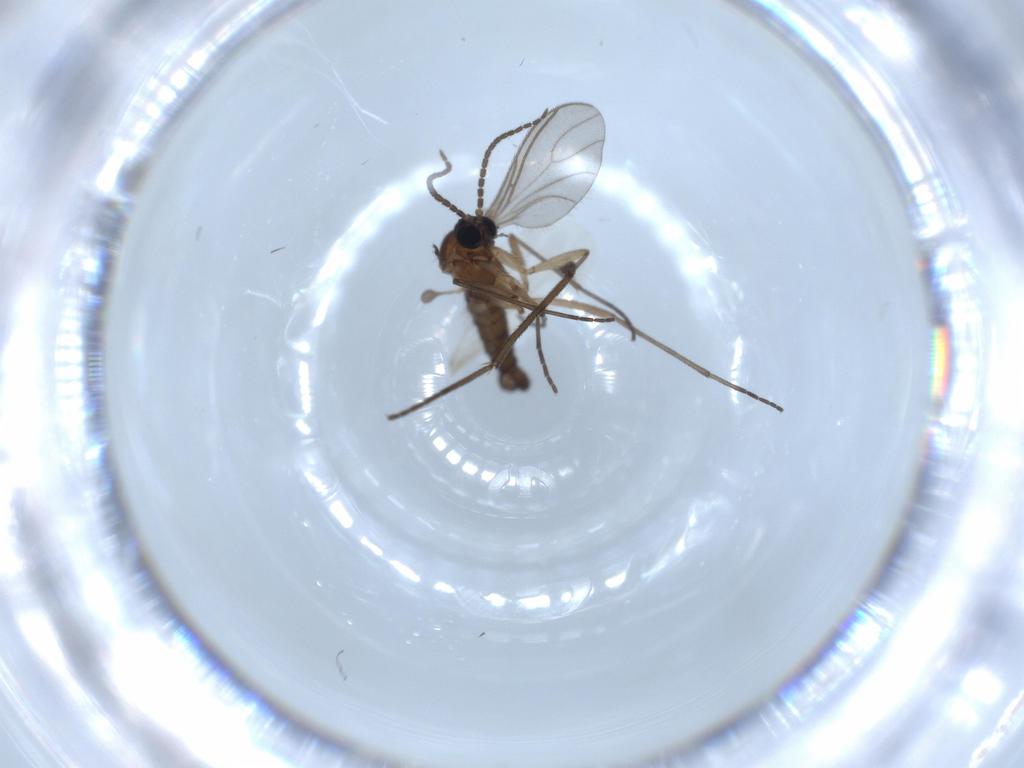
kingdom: Animalia
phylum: Arthropoda
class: Insecta
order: Diptera
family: Sciaridae
